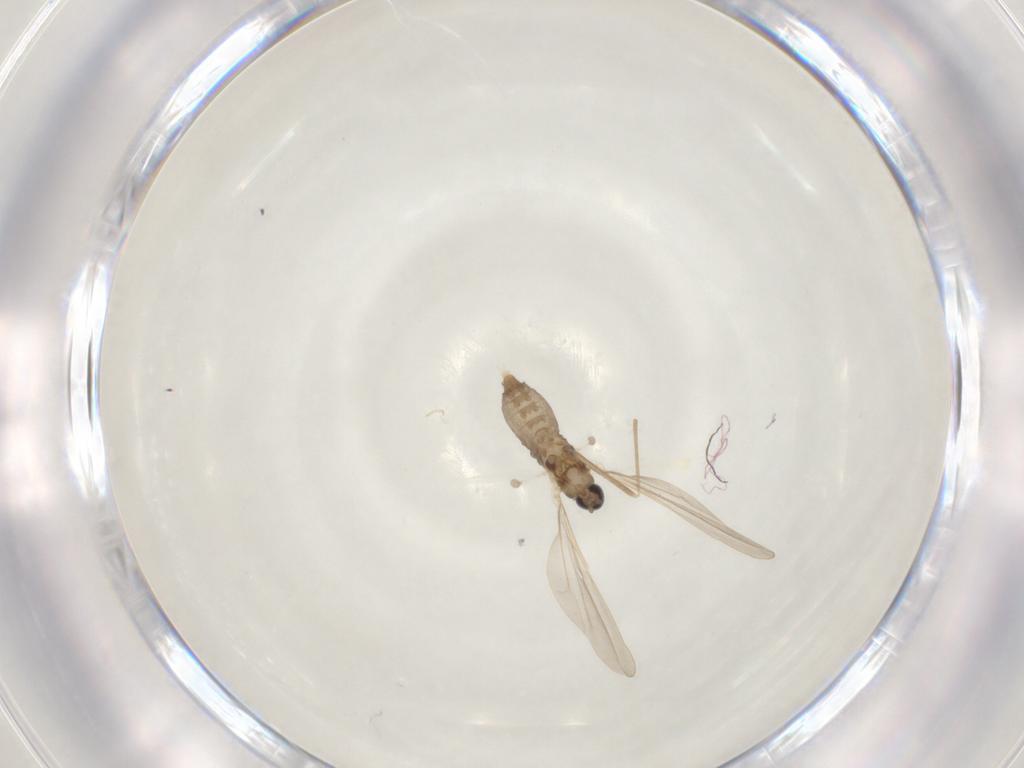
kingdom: Animalia
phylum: Arthropoda
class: Insecta
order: Diptera
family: Cecidomyiidae
